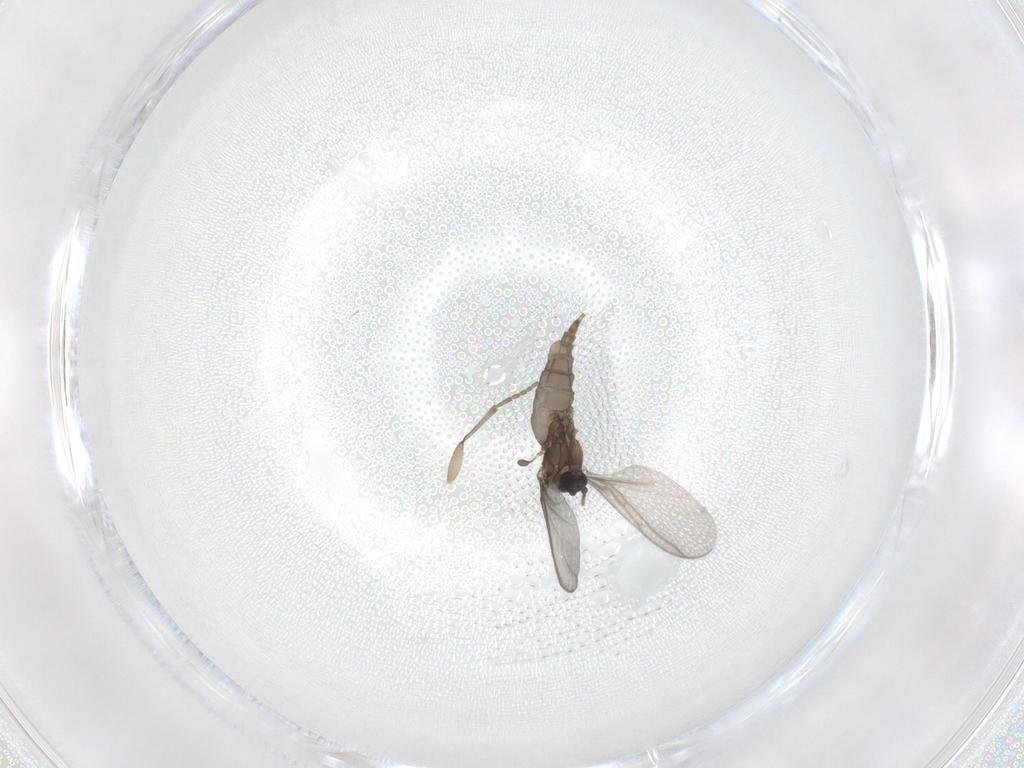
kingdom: Animalia
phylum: Arthropoda
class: Insecta
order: Diptera
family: Sciaridae
